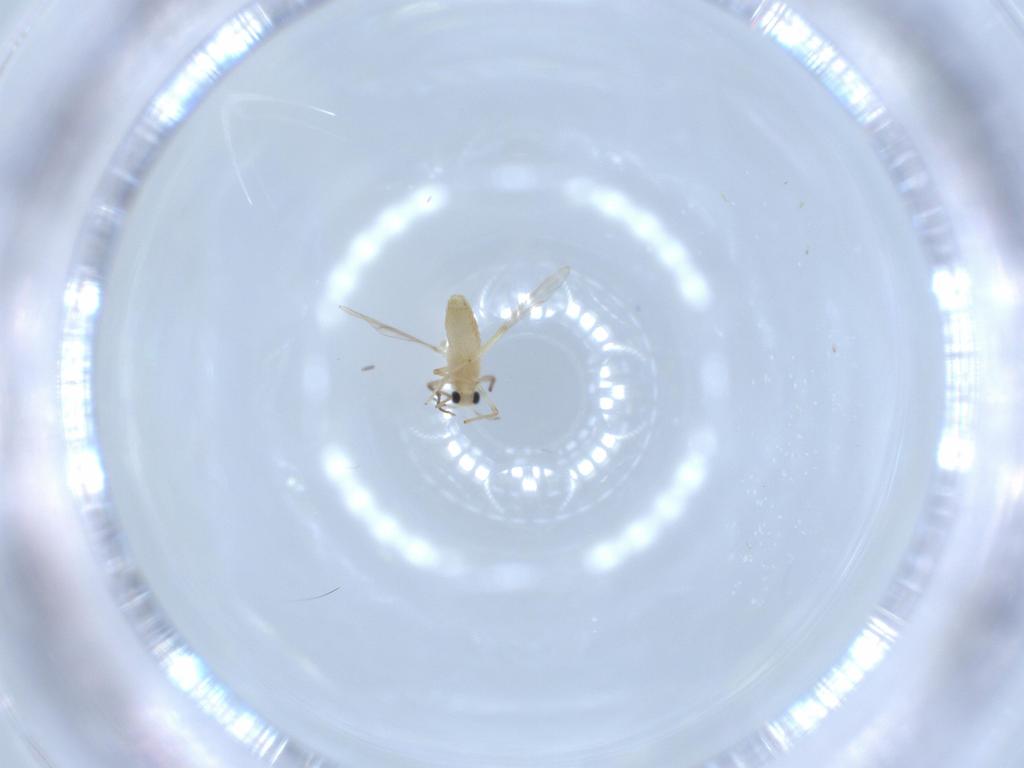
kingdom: Animalia
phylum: Arthropoda
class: Insecta
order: Diptera
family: Chironomidae
